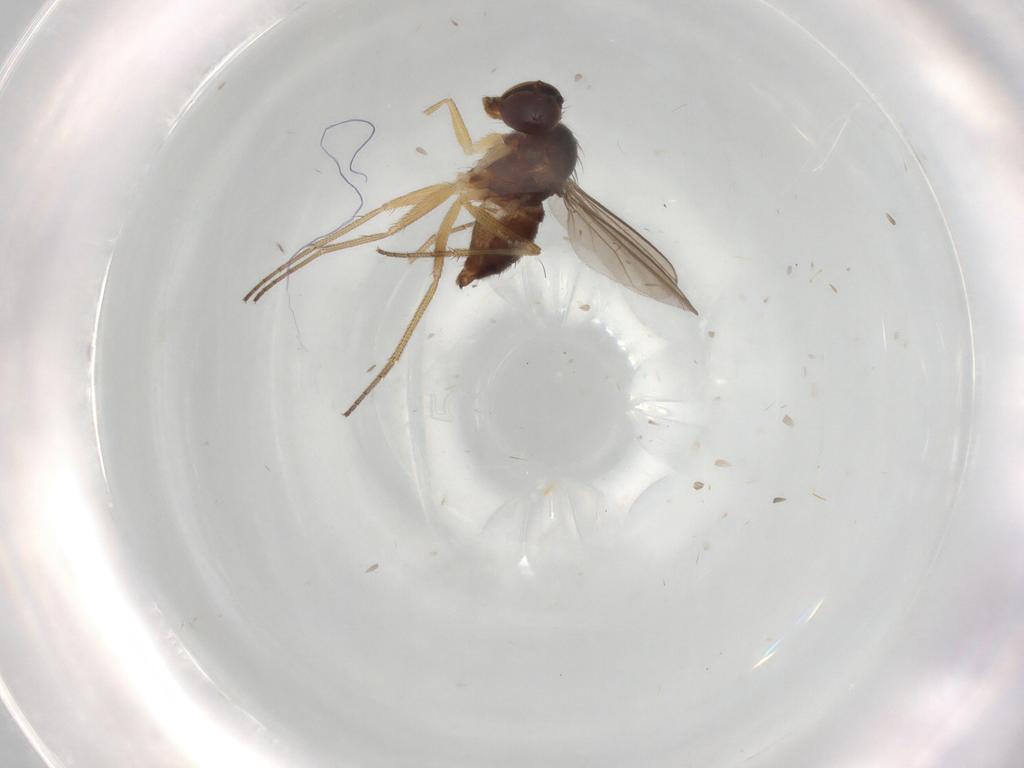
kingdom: Animalia
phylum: Arthropoda
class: Insecta
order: Diptera
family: Dolichopodidae
